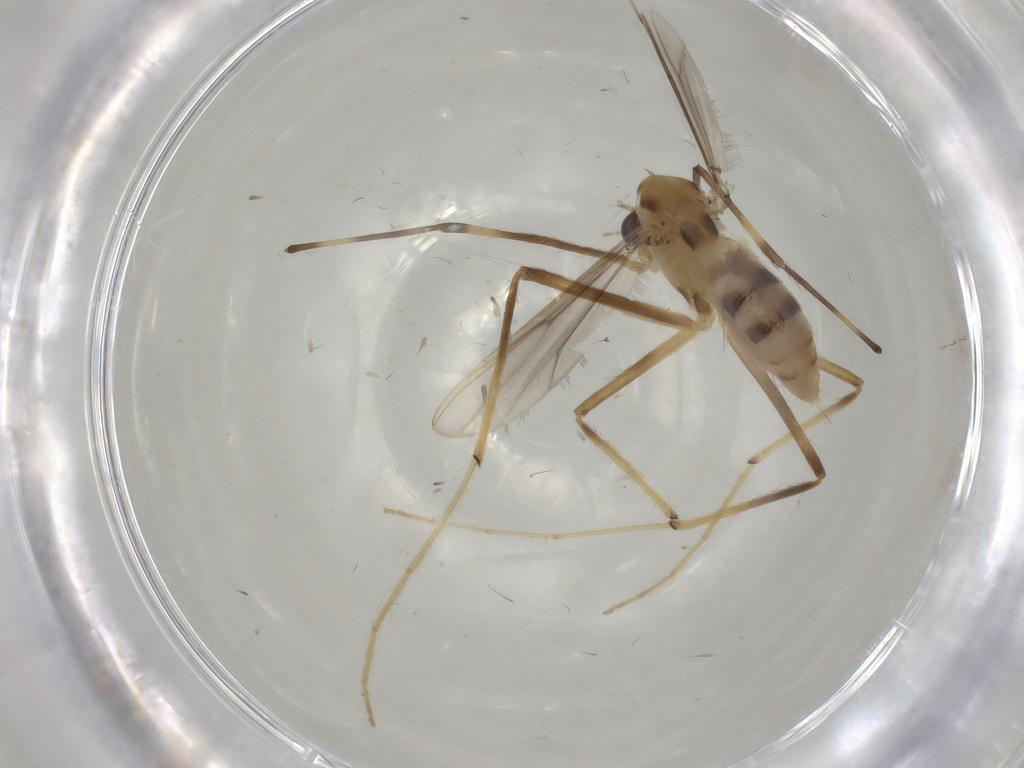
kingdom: Animalia
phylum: Arthropoda
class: Insecta
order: Diptera
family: Chironomidae
